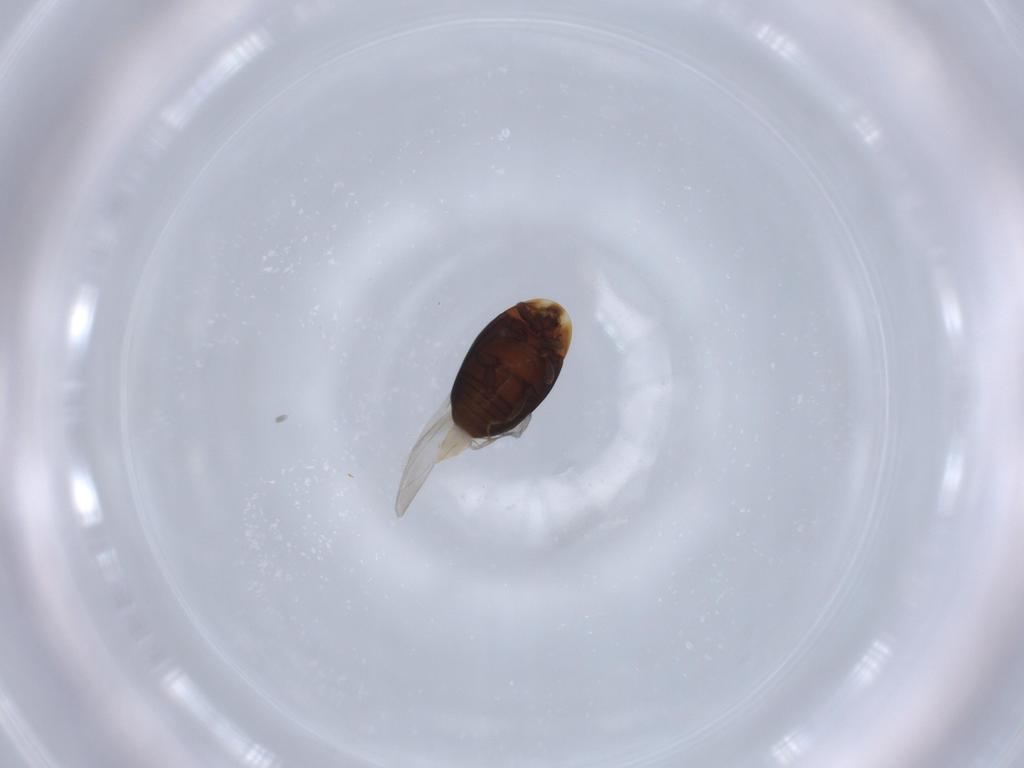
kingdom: Animalia
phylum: Arthropoda
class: Insecta
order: Coleoptera
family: Corylophidae
